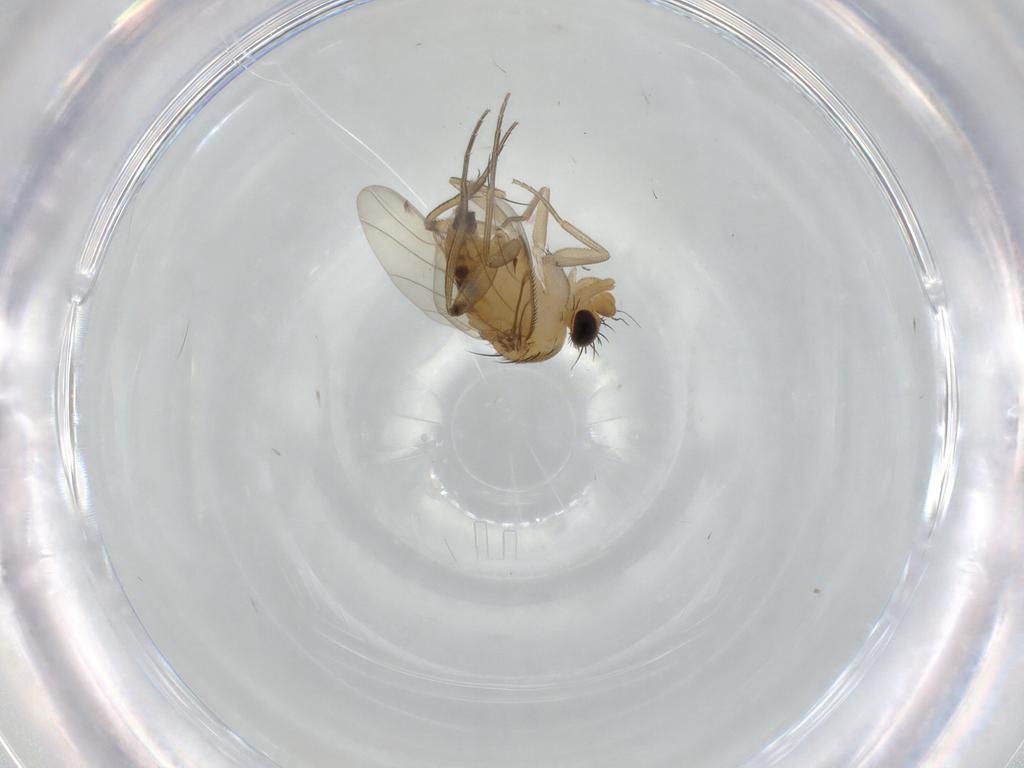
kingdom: Animalia
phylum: Arthropoda
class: Insecta
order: Diptera
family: Phoridae
